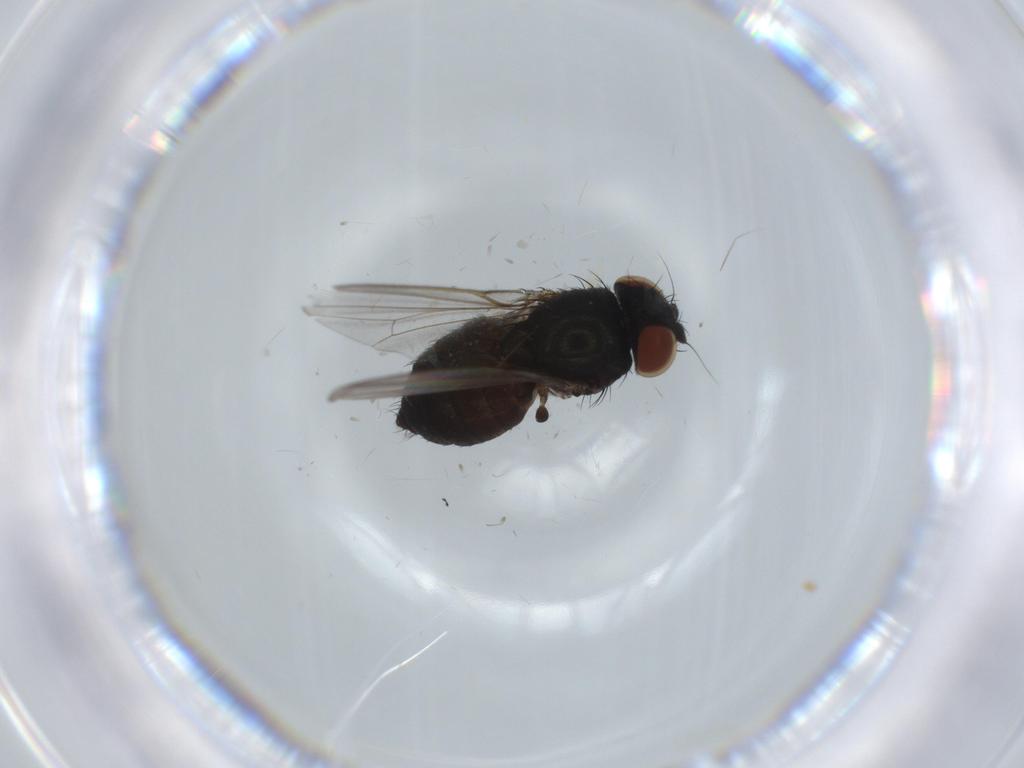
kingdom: Animalia
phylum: Arthropoda
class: Insecta
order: Diptera
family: Milichiidae
